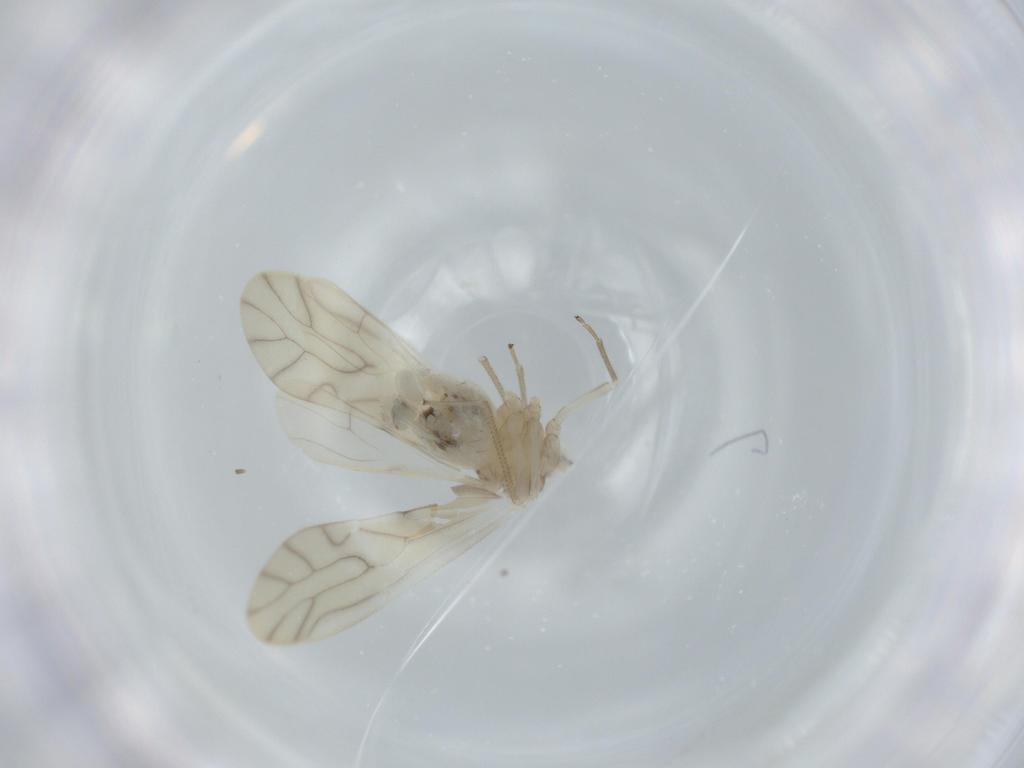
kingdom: Animalia
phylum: Arthropoda
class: Insecta
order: Psocodea
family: Caeciliusidae
